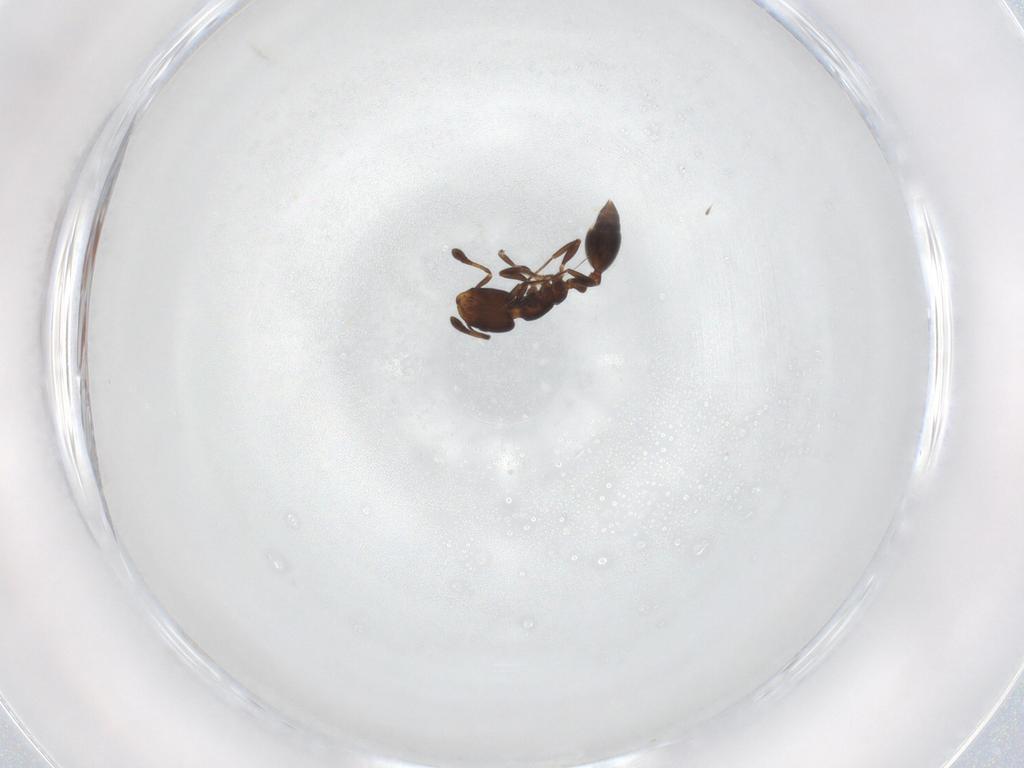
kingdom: Animalia
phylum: Arthropoda
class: Insecta
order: Hymenoptera
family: Formicidae
